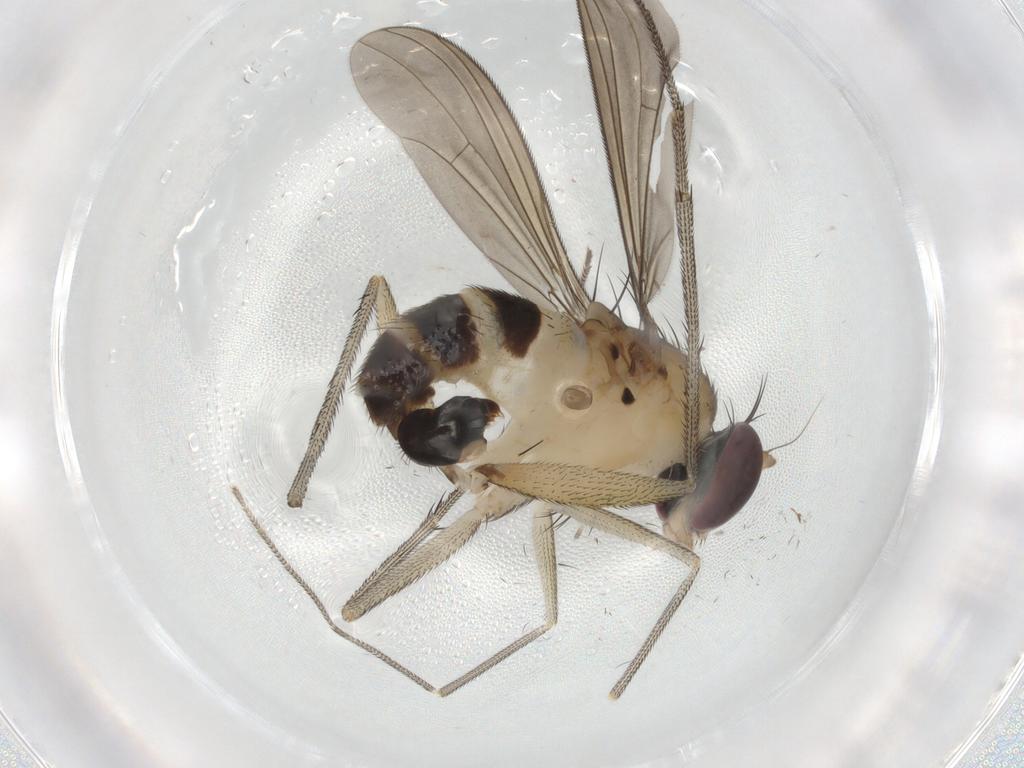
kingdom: Animalia
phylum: Arthropoda
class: Insecta
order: Diptera
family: Dolichopodidae
